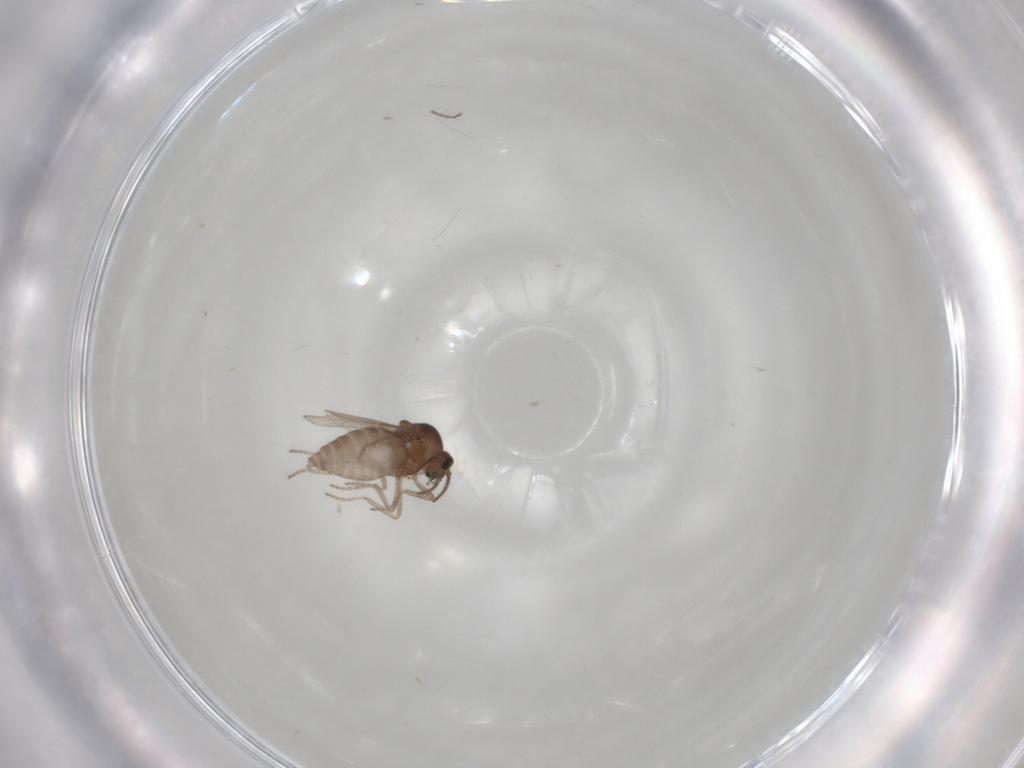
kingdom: Animalia
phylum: Arthropoda
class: Insecta
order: Diptera
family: Ceratopogonidae
